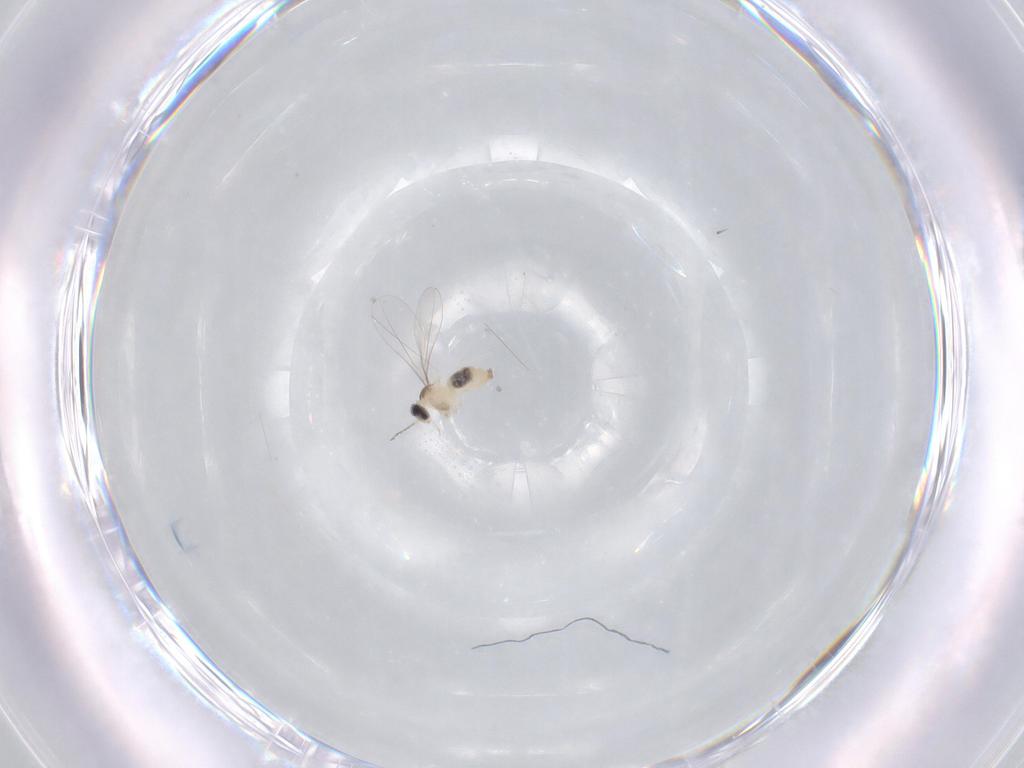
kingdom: Animalia
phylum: Arthropoda
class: Insecta
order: Diptera
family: Cecidomyiidae
